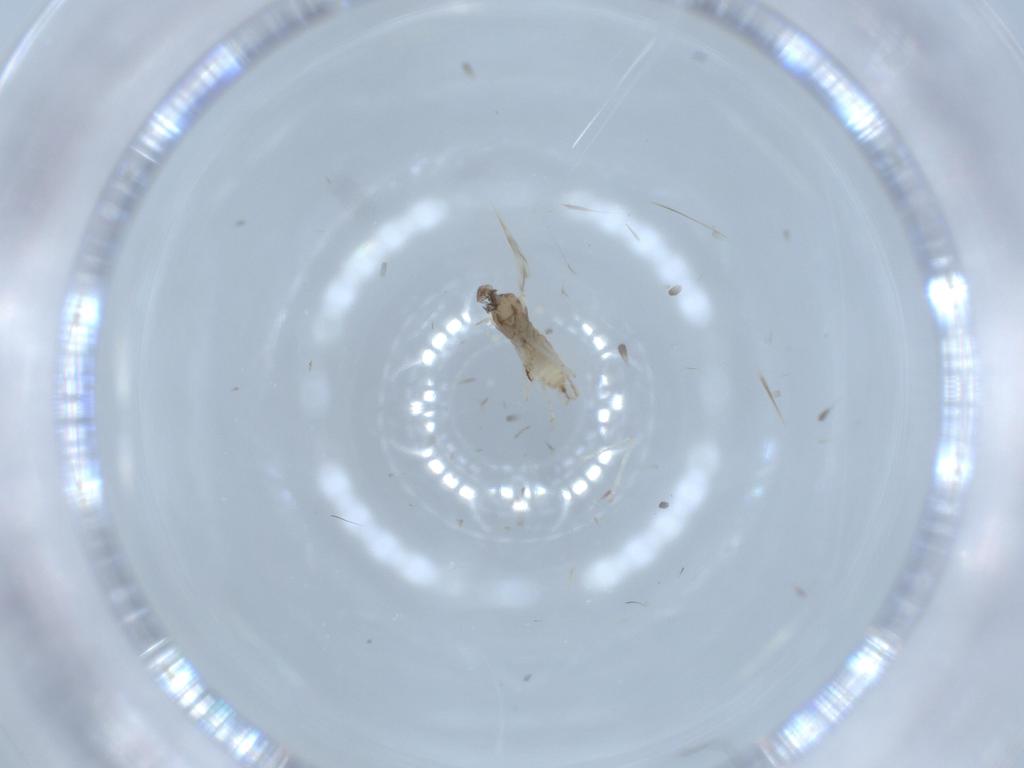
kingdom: Animalia
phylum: Arthropoda
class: Insecta
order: Diptera
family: Cecidomyiidae
